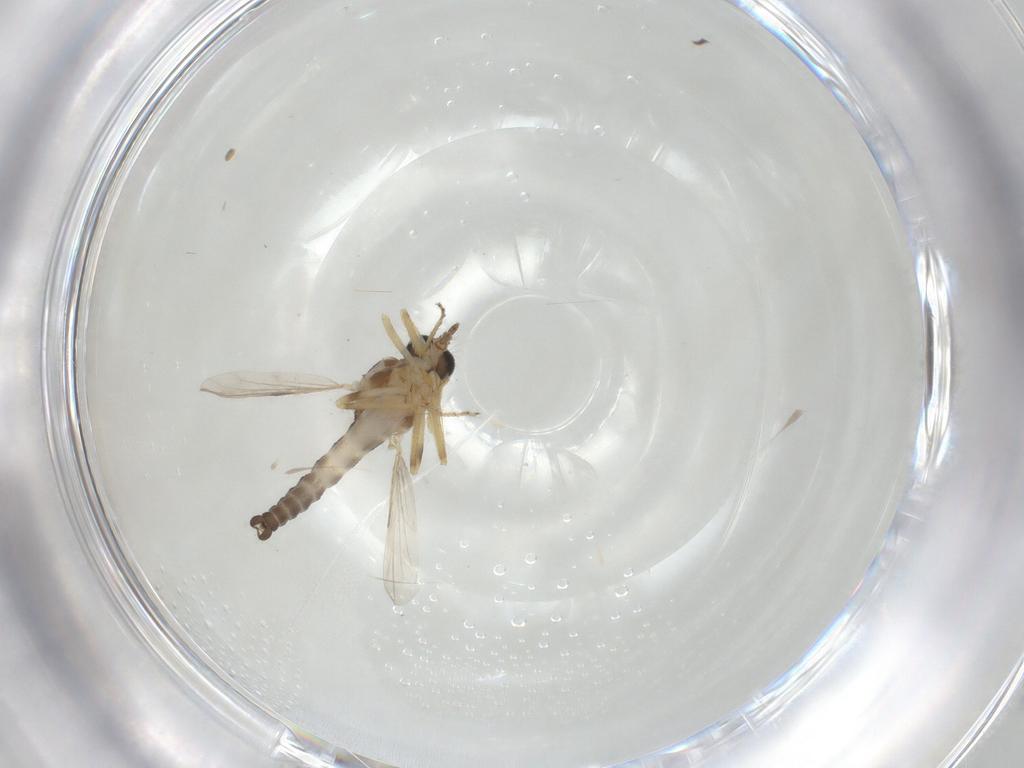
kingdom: Animalia
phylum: Arthropoda
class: Insecta
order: Diptera
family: Ceratopogonidae
